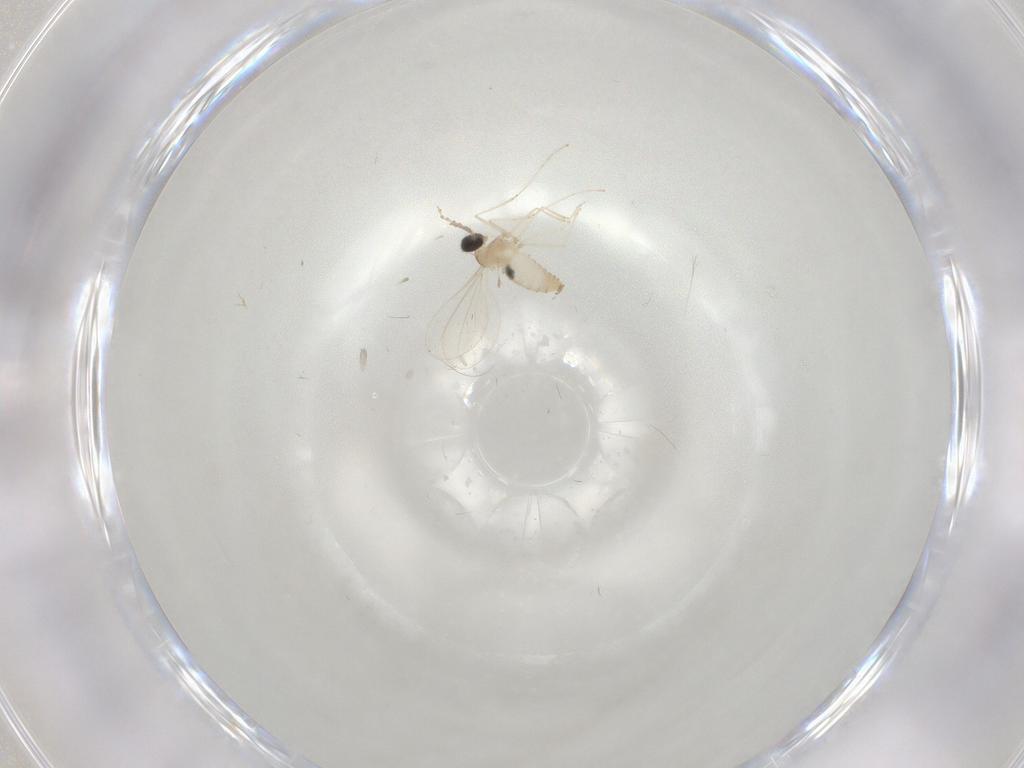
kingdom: Animalia
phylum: Arthropoda
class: Insecta
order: Diptera
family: Cecidomyiidae
